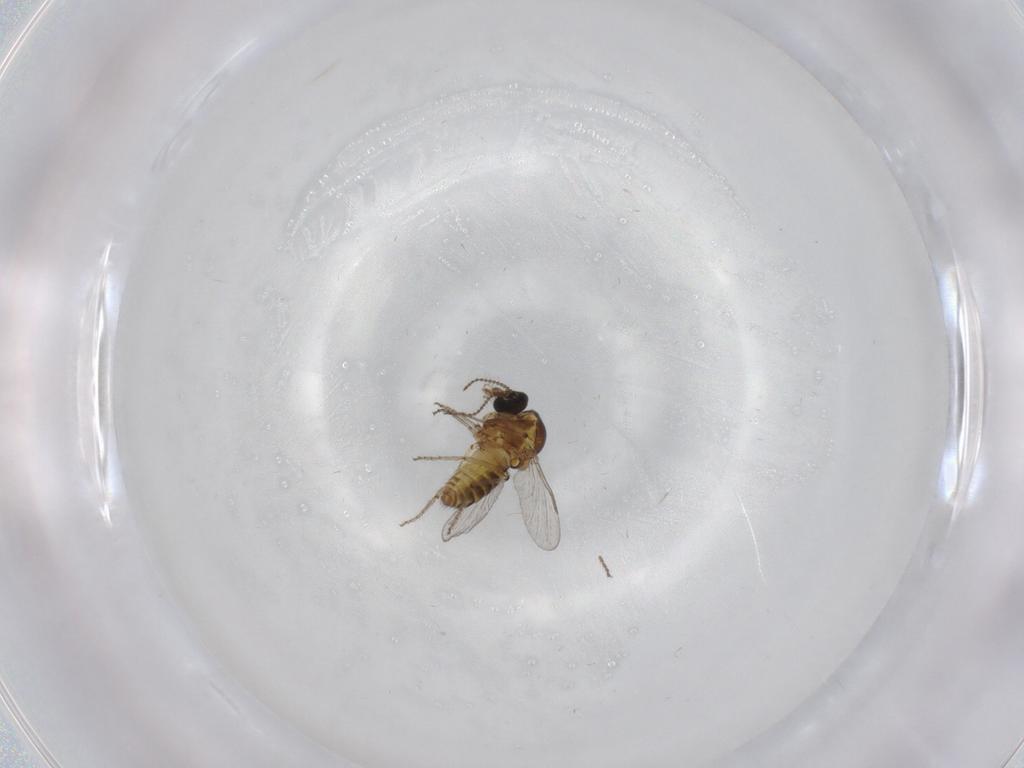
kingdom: Animalia
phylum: Arthropoda
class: Insecta
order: Diptera
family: Ceratopogonidae
